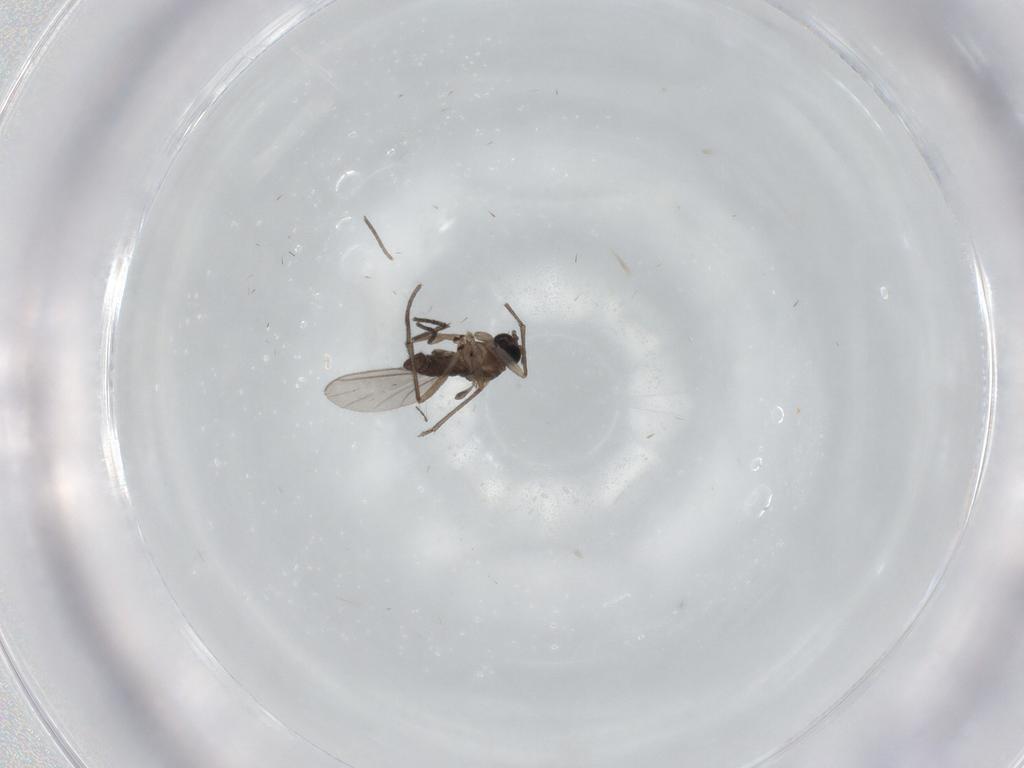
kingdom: Animalia
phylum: Arthropoda
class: Insecta
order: Diptera
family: Sciaridae
